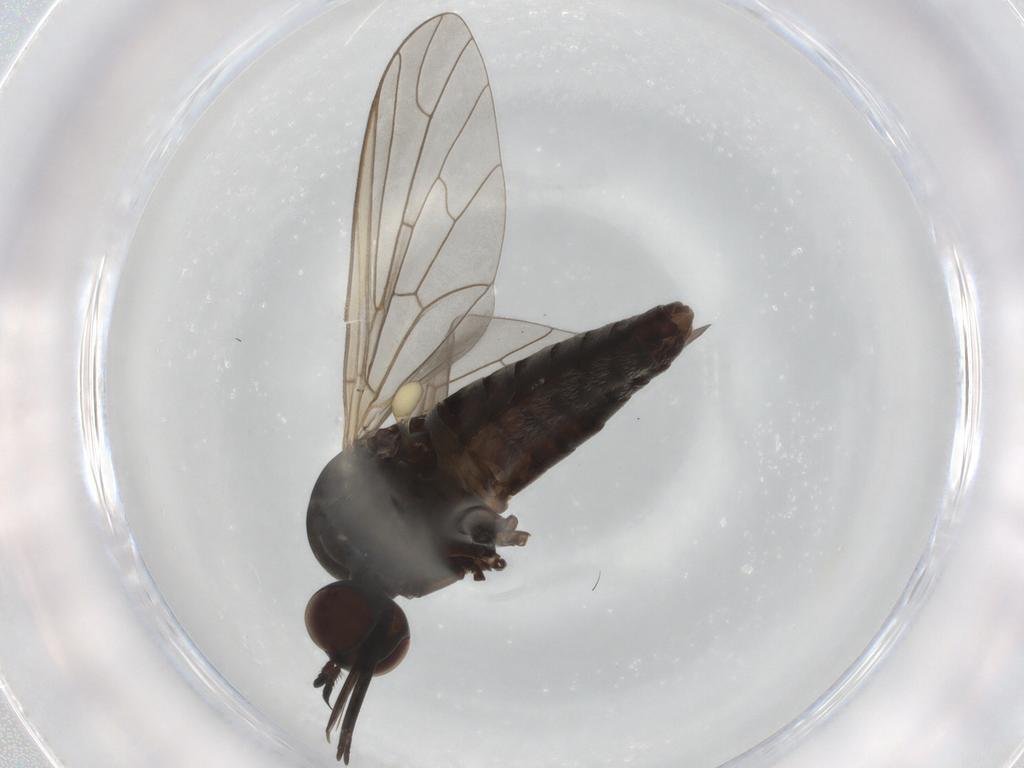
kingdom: Animalia
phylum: Arthropoda
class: Insecta
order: Diptera
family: Bombyliidae
